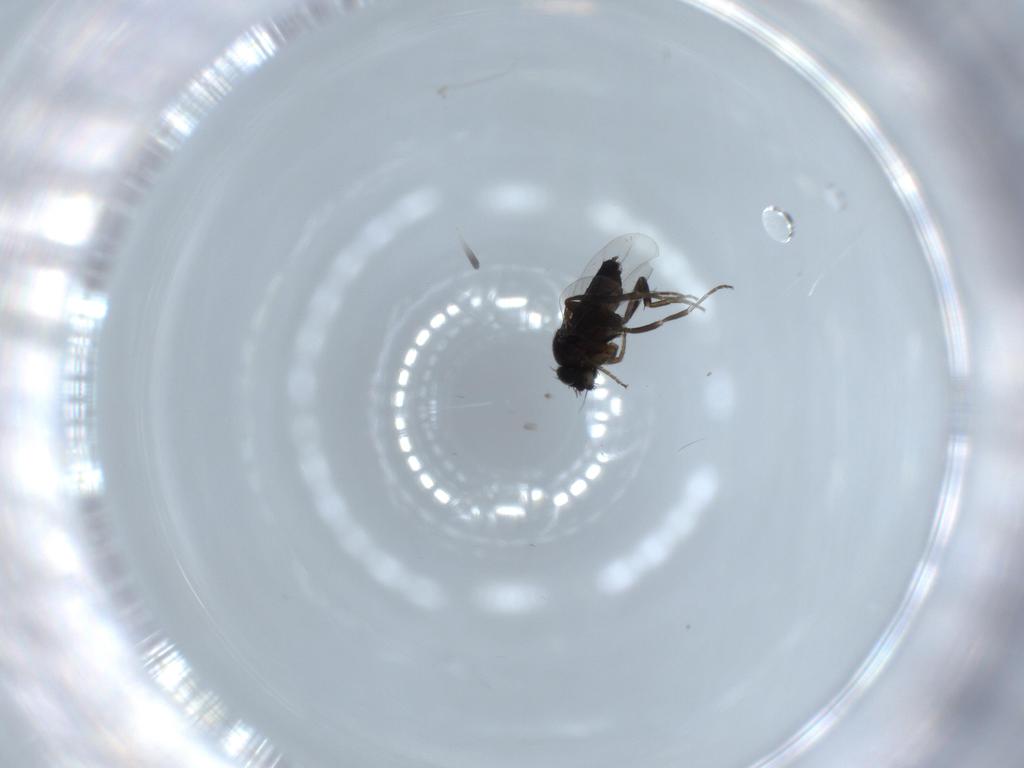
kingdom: Animalia
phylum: Arthropoda
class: Insecta
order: Diptera
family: Phoridae
